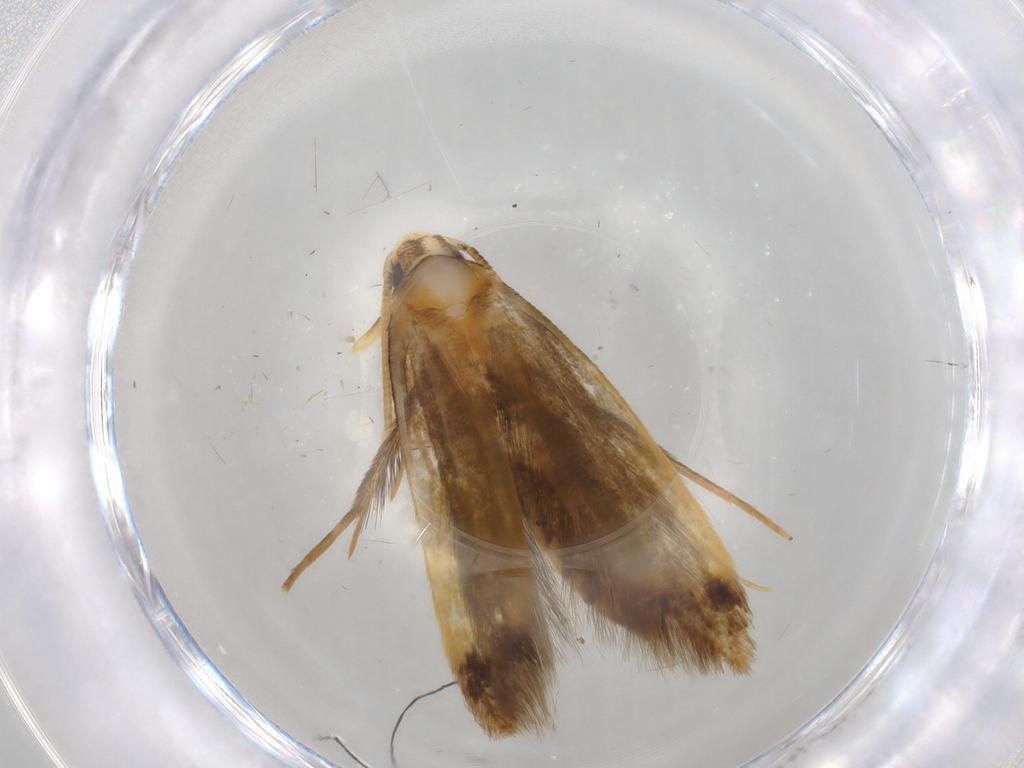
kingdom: Animalia
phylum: Arthropoda
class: Insecta
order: Lepidoptera
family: Tineidae
